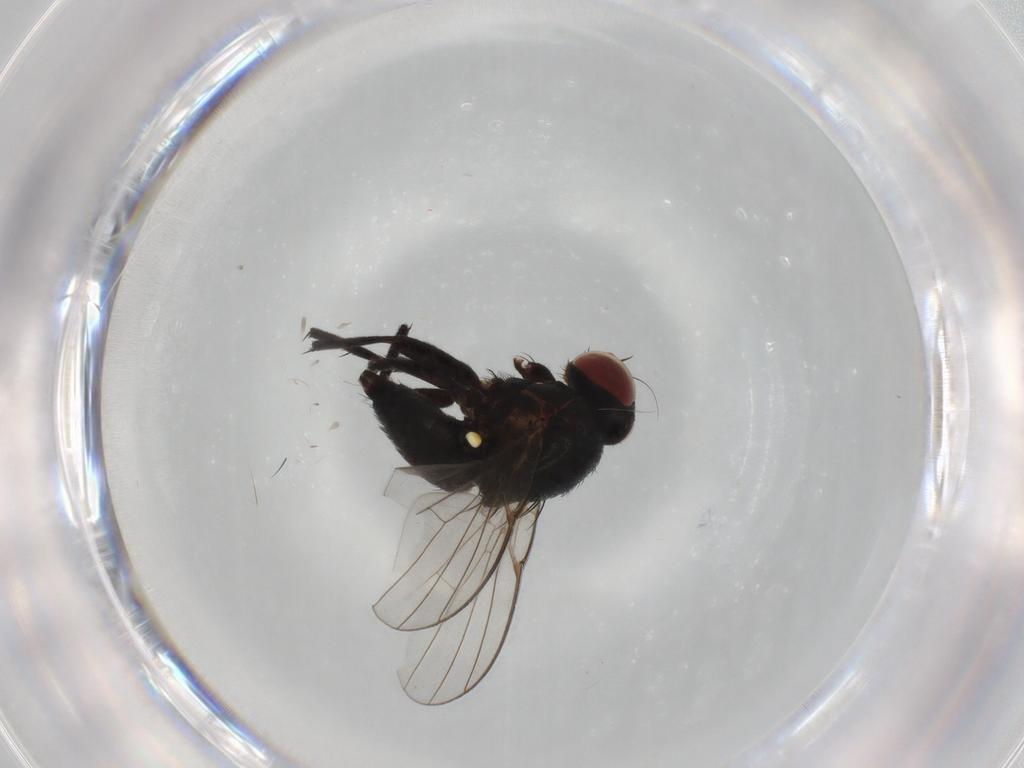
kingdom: Animalia
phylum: Arthropoda
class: Insecta
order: Diptera
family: Agromyzidae
